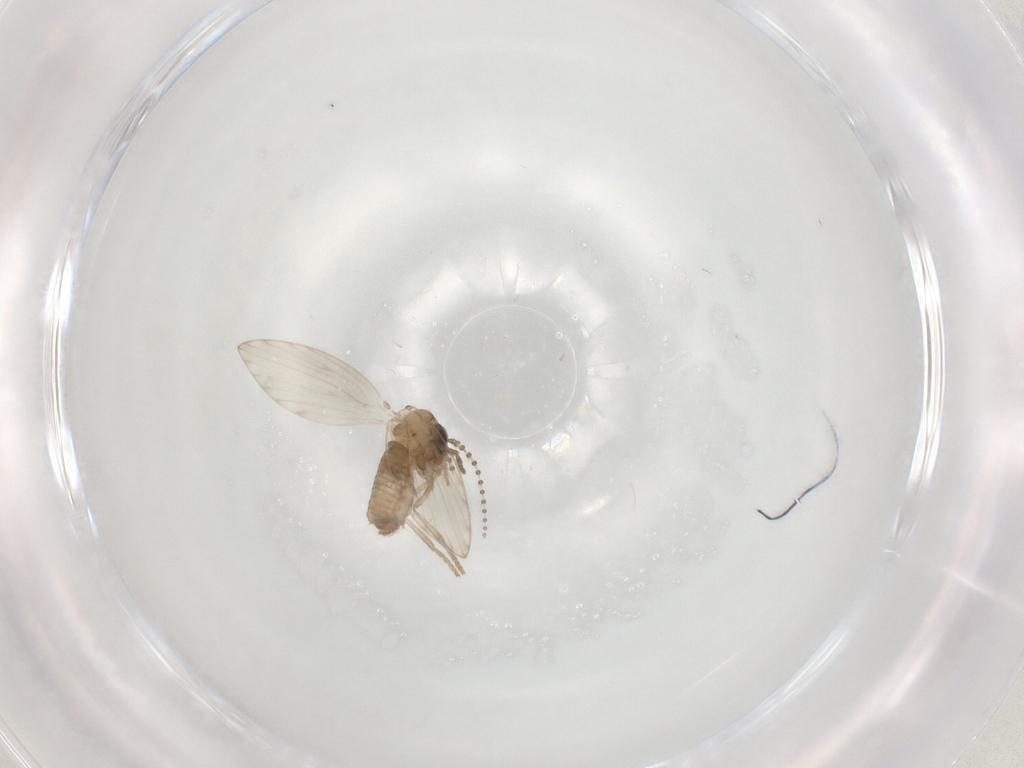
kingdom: Animalia
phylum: Arthropoda
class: Insecta
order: Diptera
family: Psychodidae
